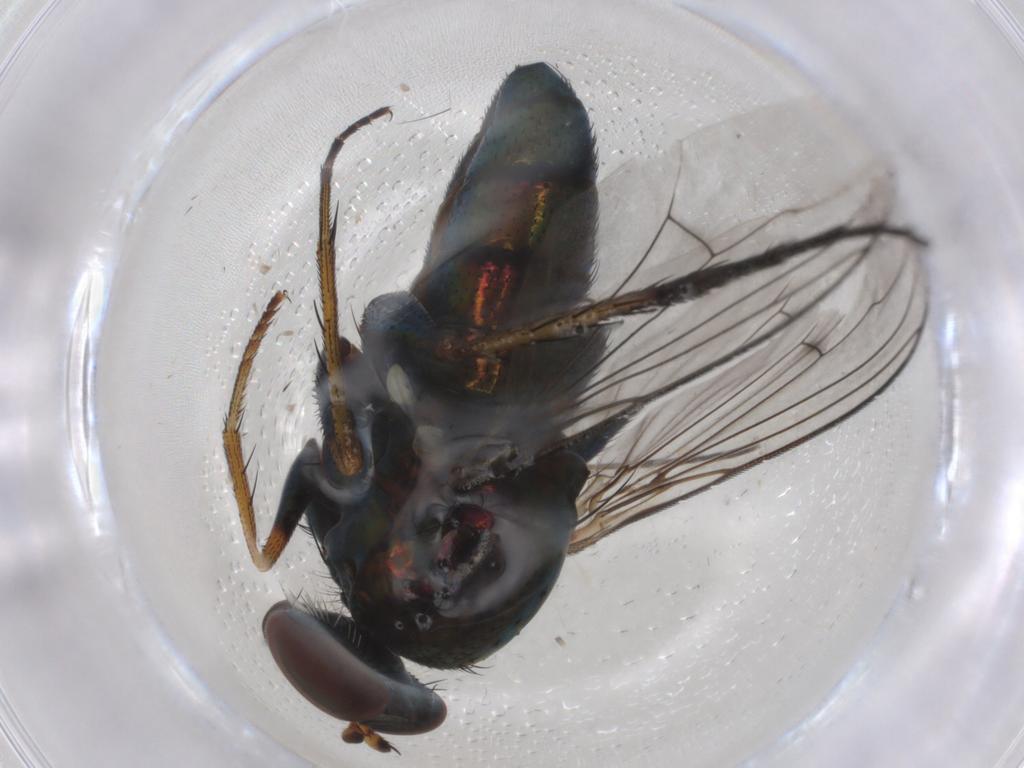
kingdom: Animalia
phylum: Arthropoda
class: Insecta
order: Diptera
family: Dolichopodidae
